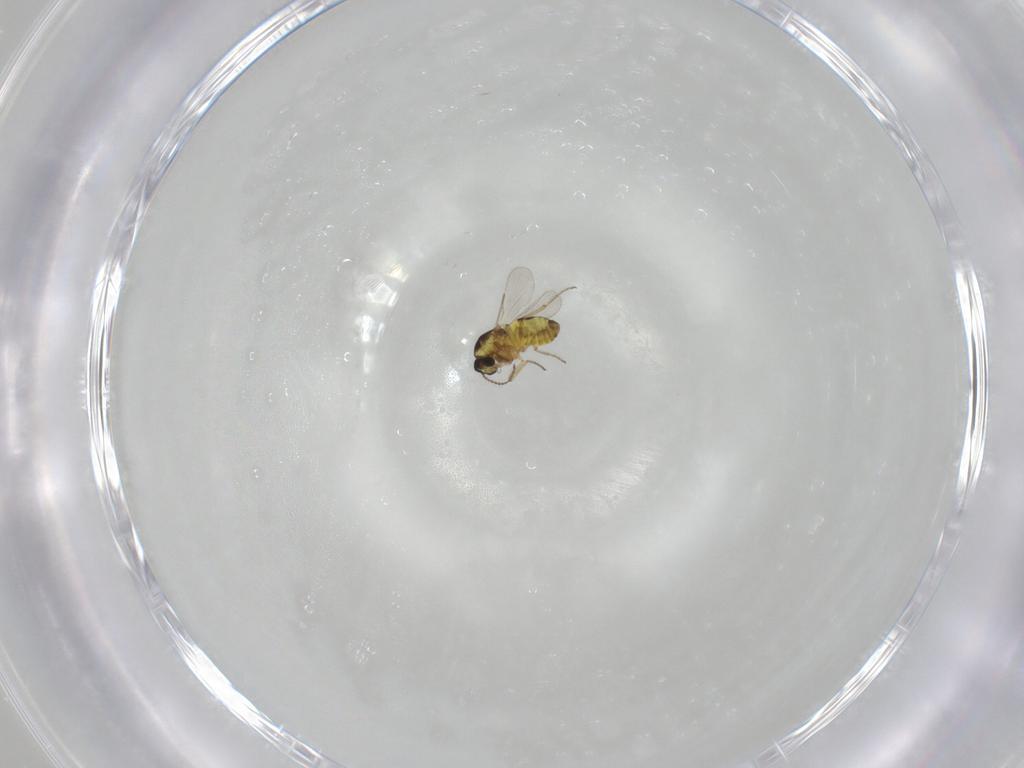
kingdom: Animalia
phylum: Arthropoda
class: Insecta
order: Diptera
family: Ceratopogonidae
